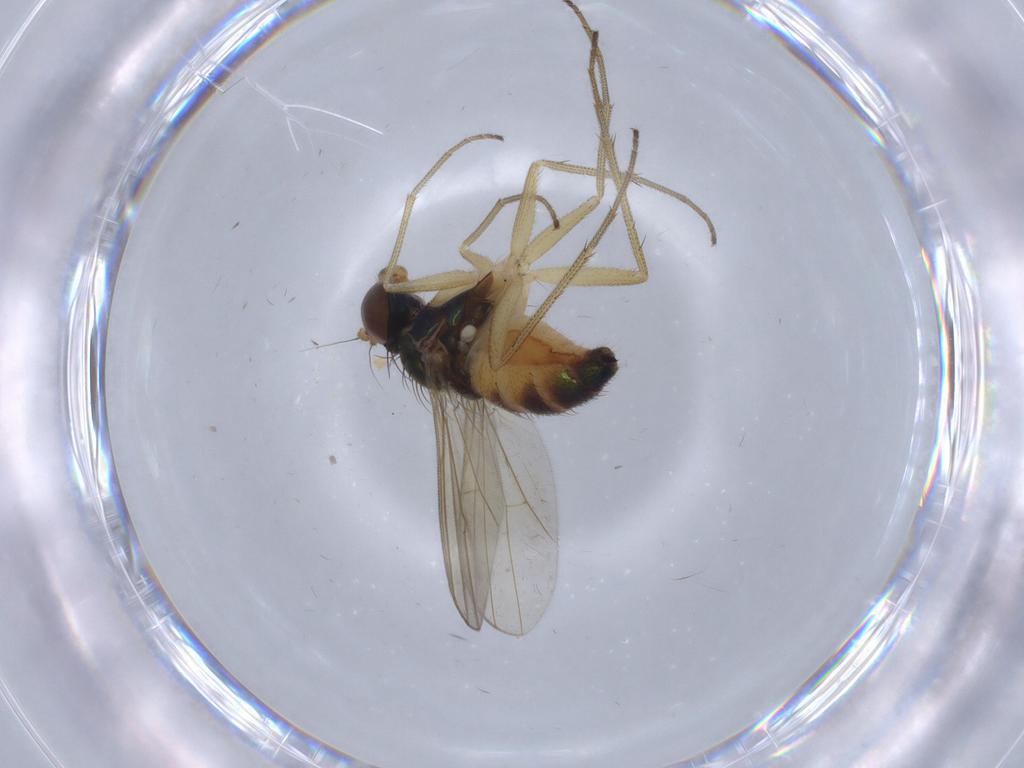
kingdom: Animalia
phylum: Arthropoda
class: Insecta
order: Diptera
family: Dolichopodidae
